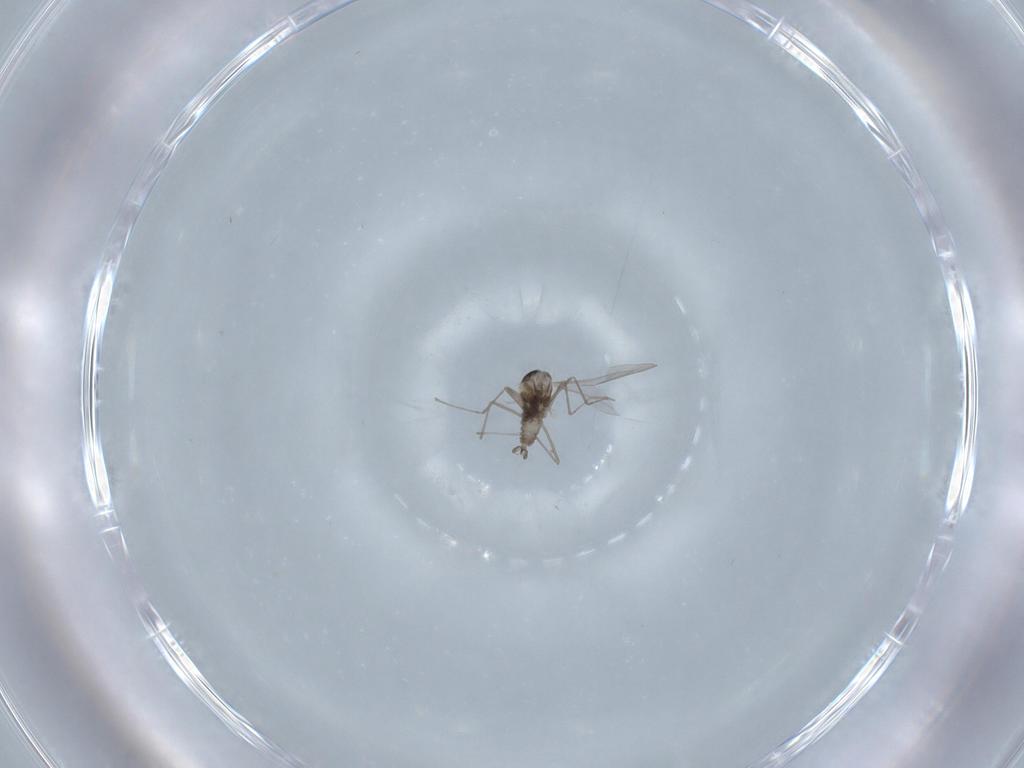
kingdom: Animalia
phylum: Arthropoda
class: Insecta
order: Diptera
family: Cecidomyiidae
